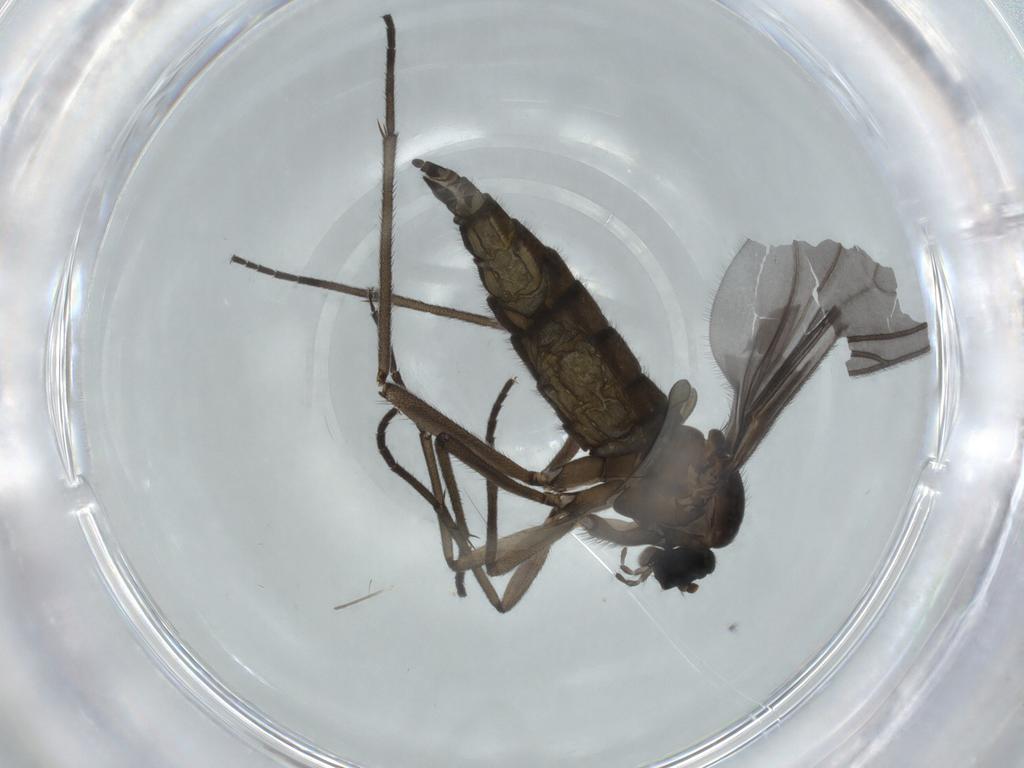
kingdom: Animalia
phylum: Arthropoda
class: Insecta
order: Diptera
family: Sciaridae
